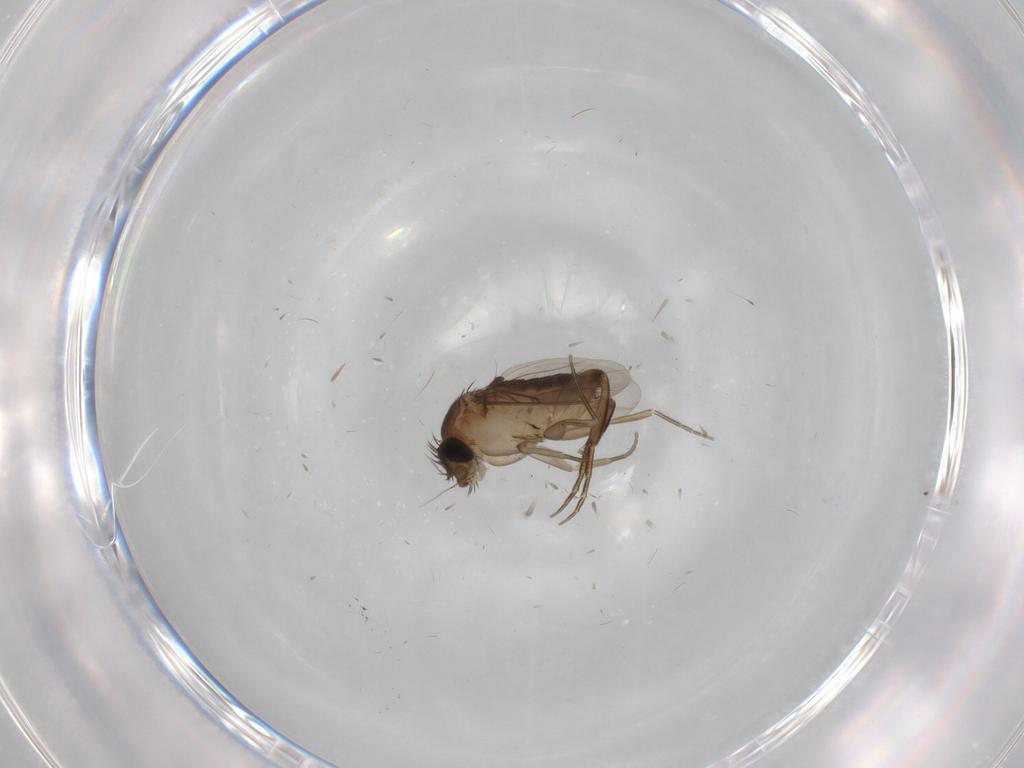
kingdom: Animalia
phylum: Arthropoda
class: Insecta
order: Diptera
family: Phoridae
